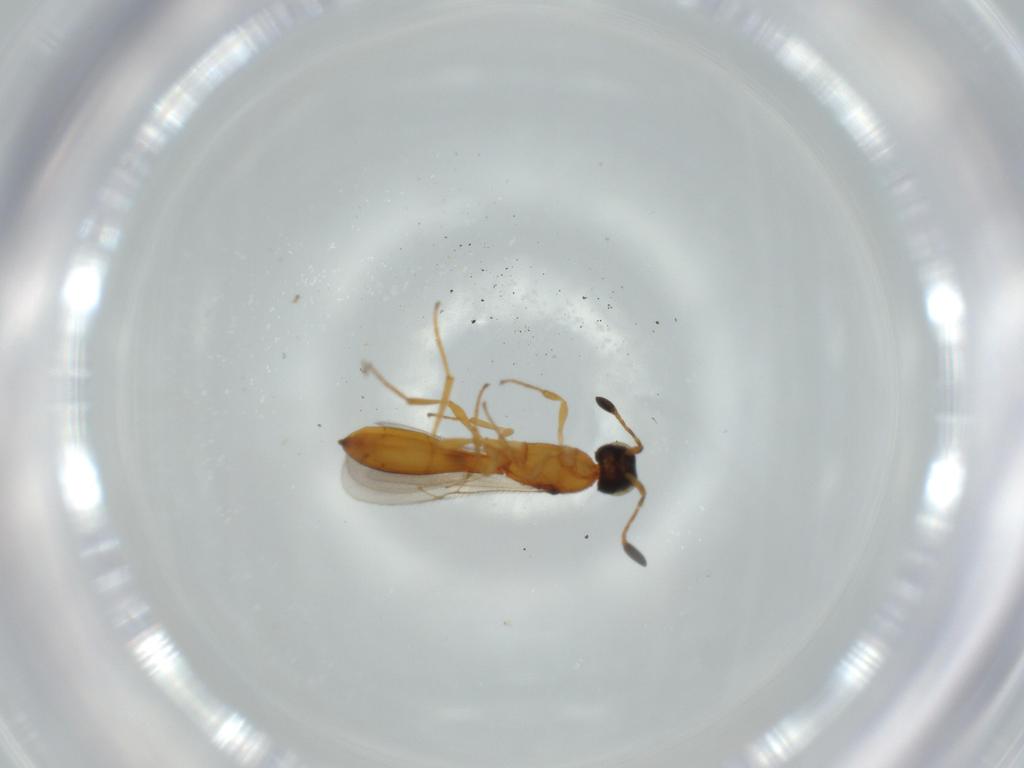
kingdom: Animalia
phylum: Arthropoda
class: Insecta
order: Hymenoptera
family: Scelionidae
